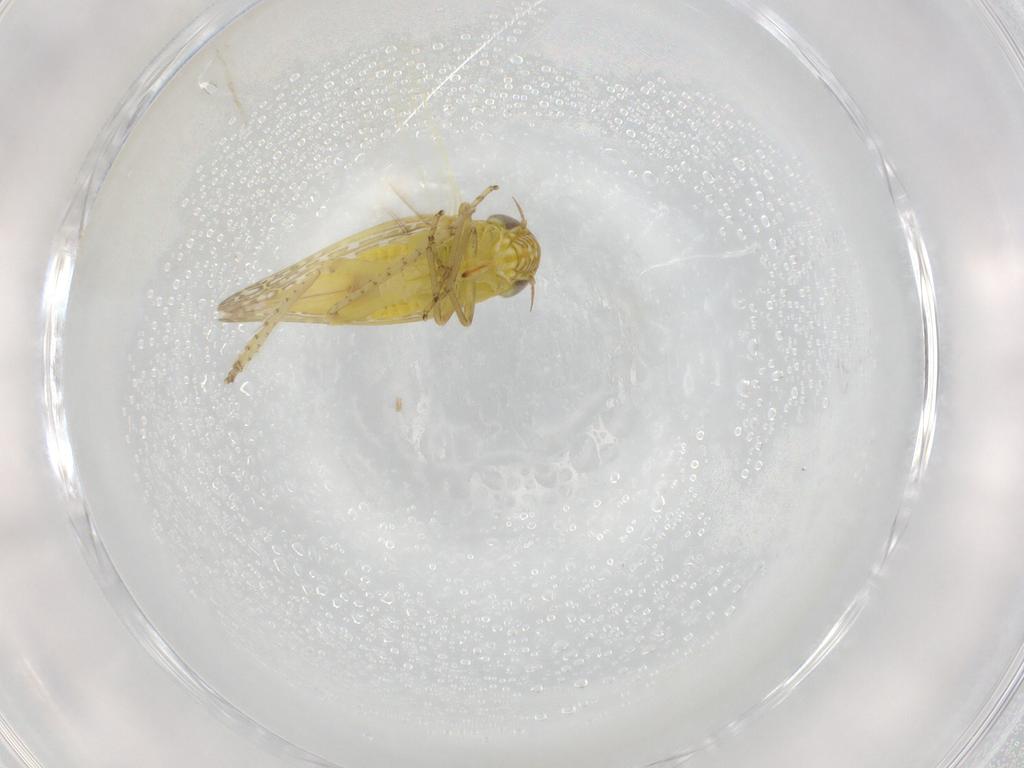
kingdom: Animalia
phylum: Arthropoda
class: Insecta
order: Hemiptera
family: Cicadellidae
